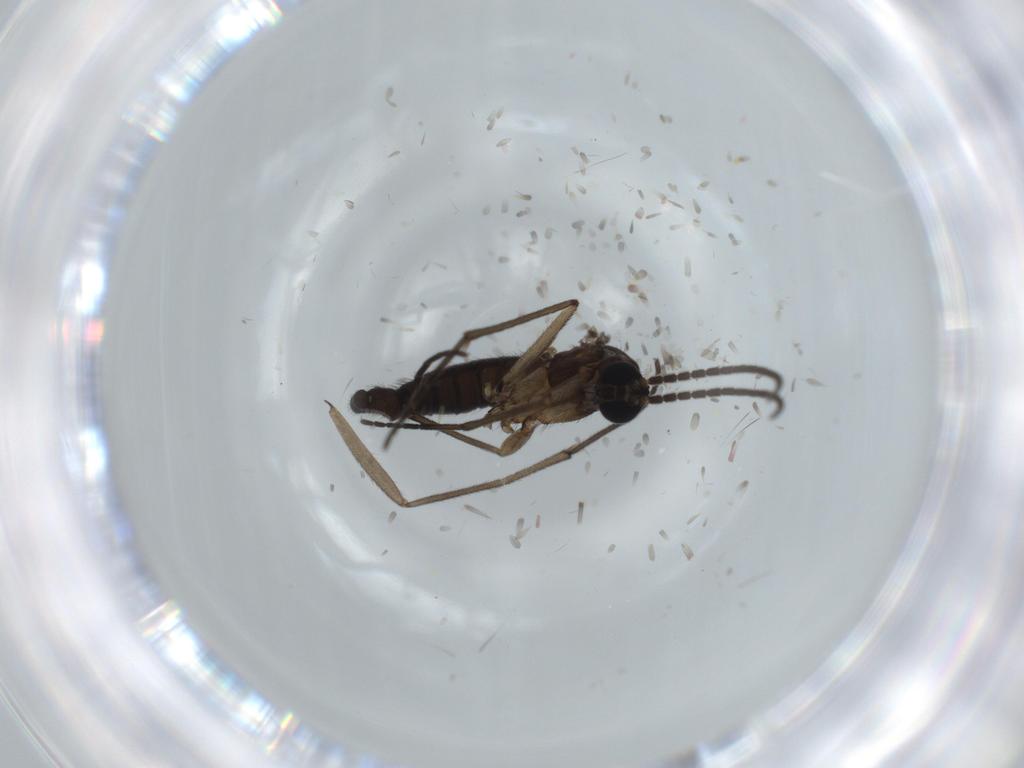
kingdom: Animalia
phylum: Arthropoda
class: Insecta
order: Diptera
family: Sciaridae
